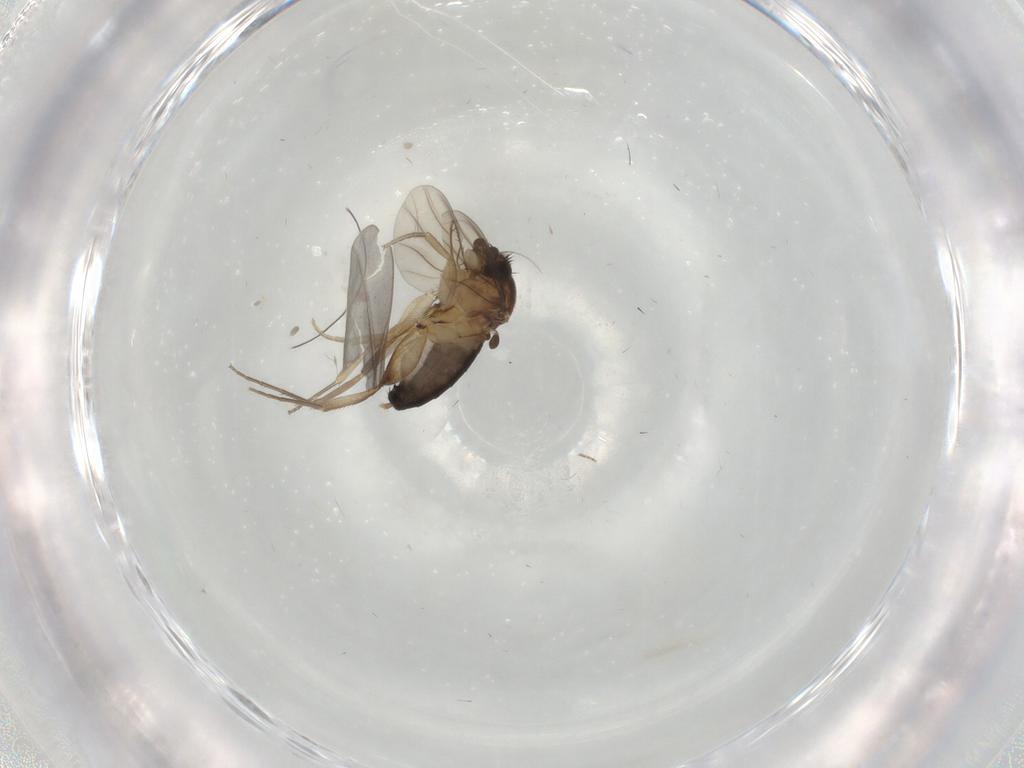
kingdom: Animalia
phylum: Arthropoda
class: Insecta
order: Diptera
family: Phoridae
